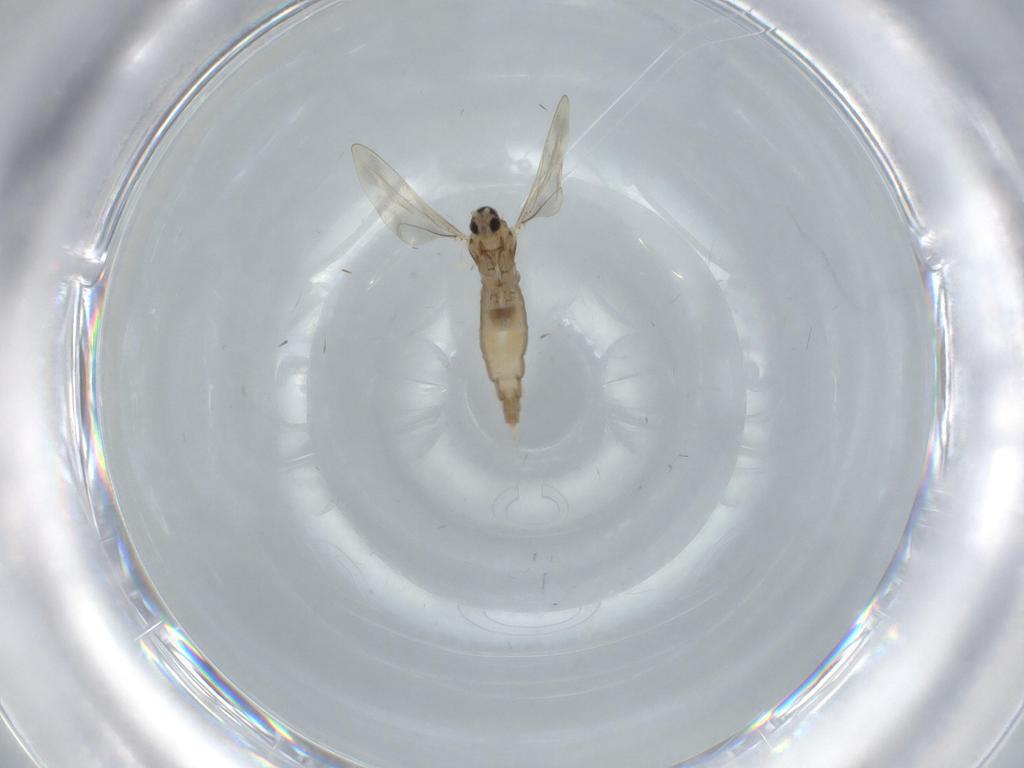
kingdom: Animalia
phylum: Arthropoda
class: Insecta
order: Diptera
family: Phoridae
